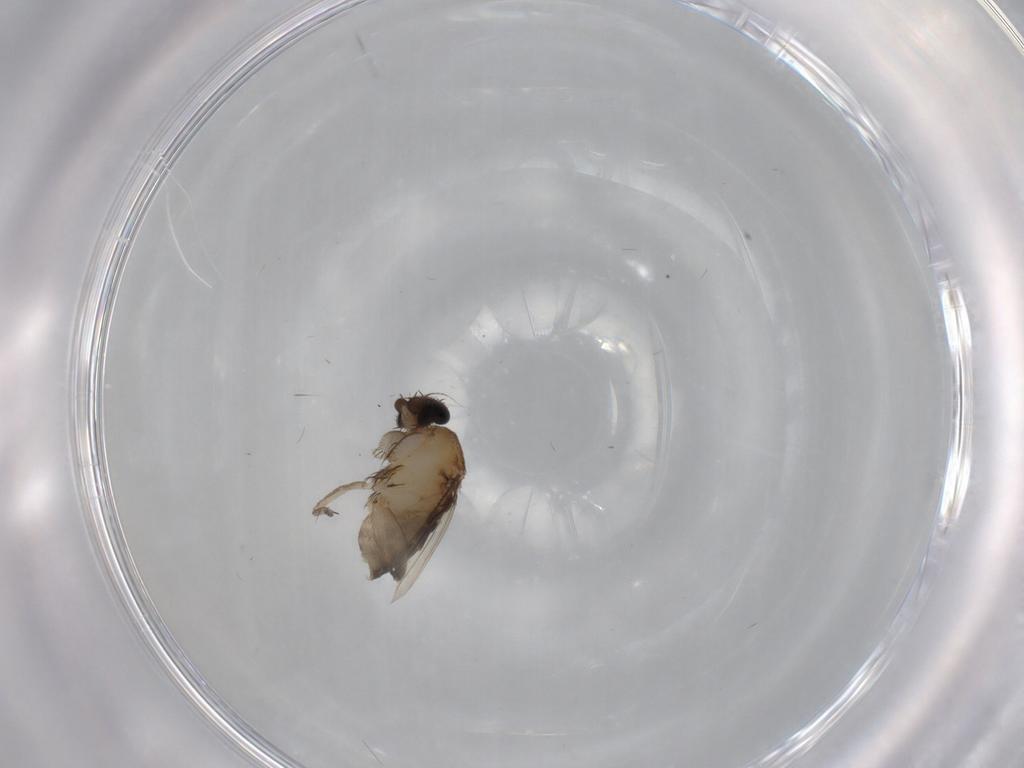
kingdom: Animalia
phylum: Arthropoda
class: Insecta
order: Diptera
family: Phoridae
